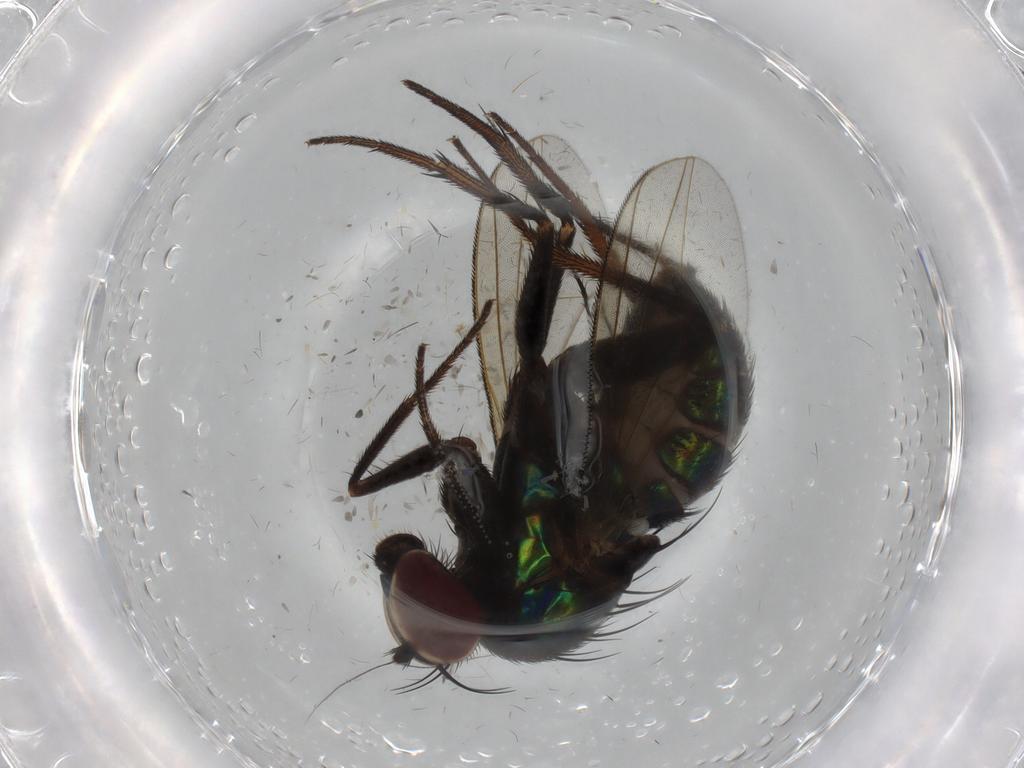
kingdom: Animalia
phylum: Arthropoda
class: Insecta
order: Diptera
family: Dolichopodidae
